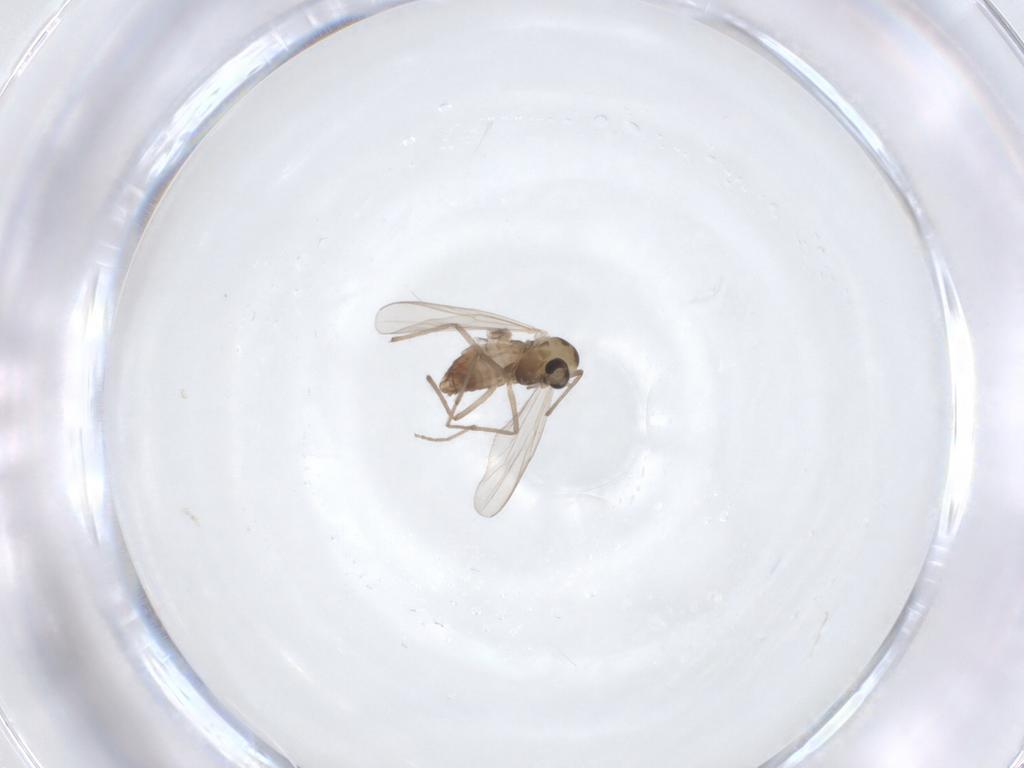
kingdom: Animalia
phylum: Arthropoda
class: Insecta
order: Diptera
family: Chironomidae
